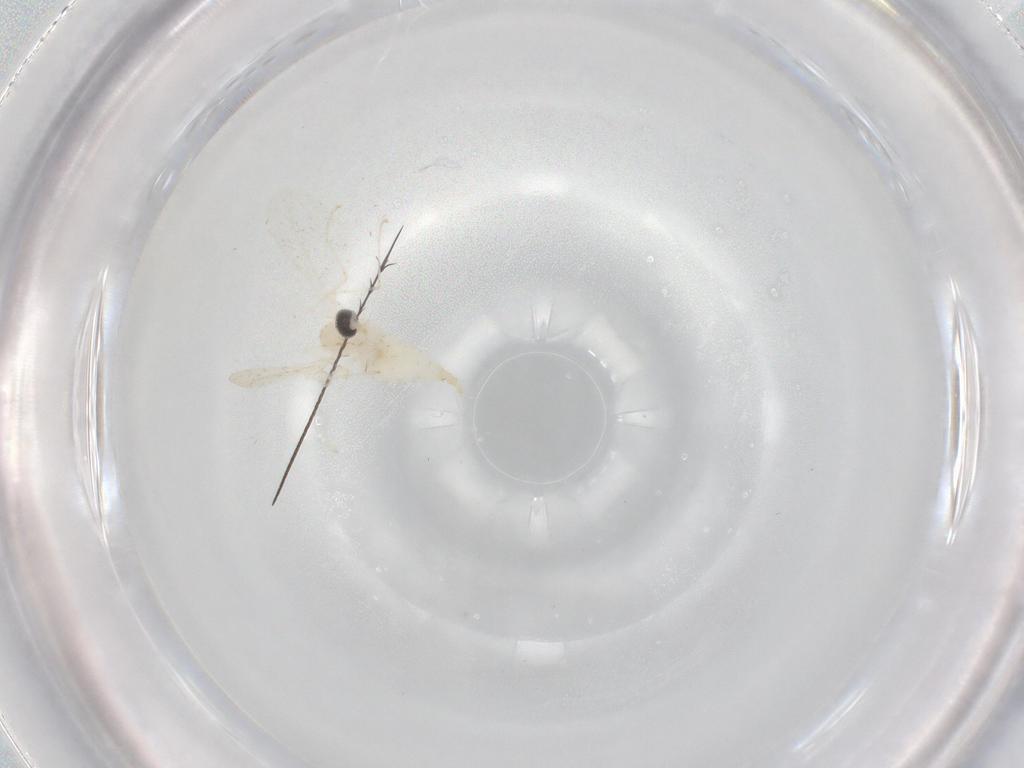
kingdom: Animalia
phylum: Arthropoda
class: Insecta
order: Diptera
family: Cecidomyiidae
